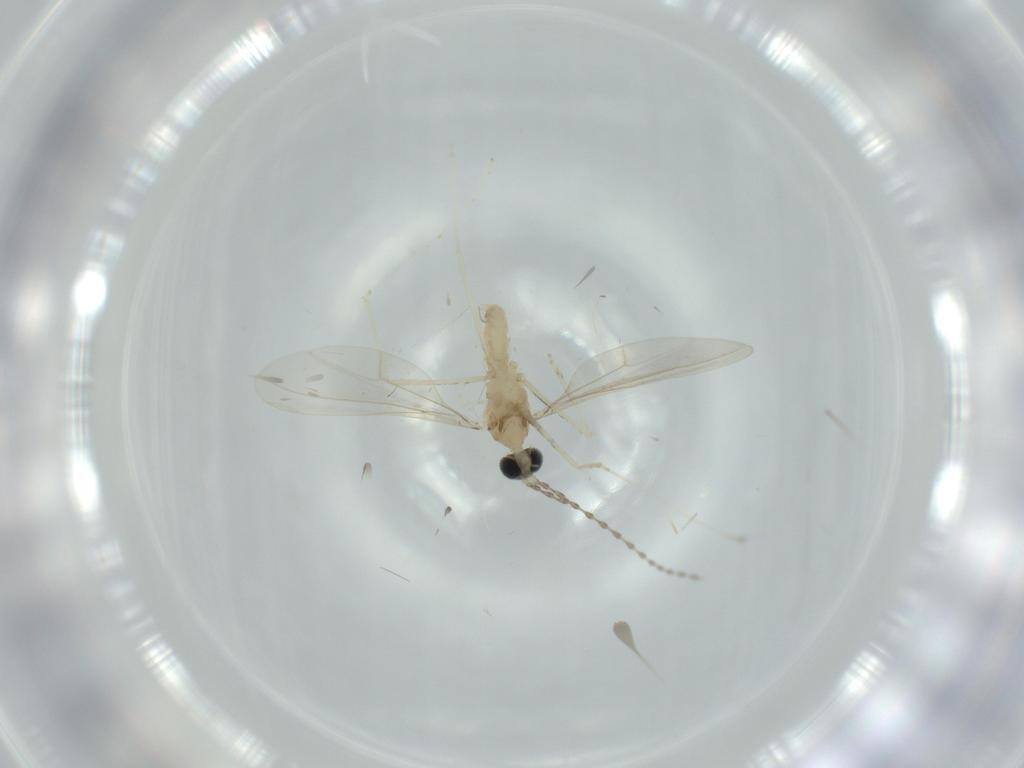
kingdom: Animalia
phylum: Arthropoda
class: Insecta
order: Diptera
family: Cecidomyiidae
